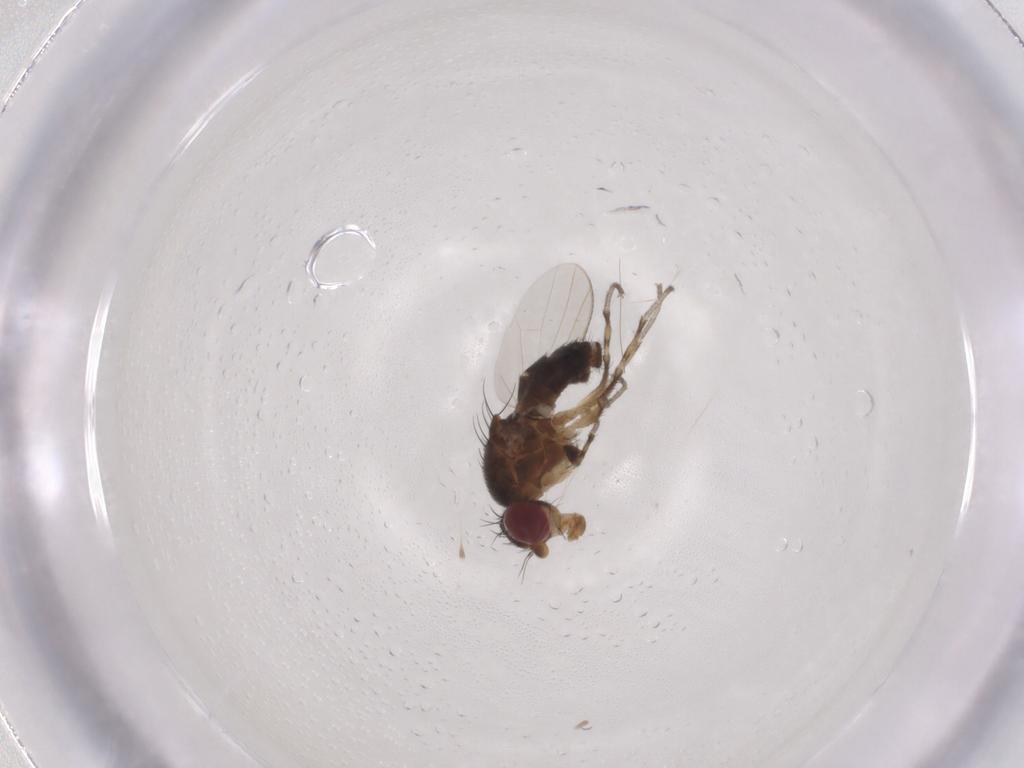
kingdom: Animalia
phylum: Arthropoda
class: Insecta
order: Diptera
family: Heleomyzidae
